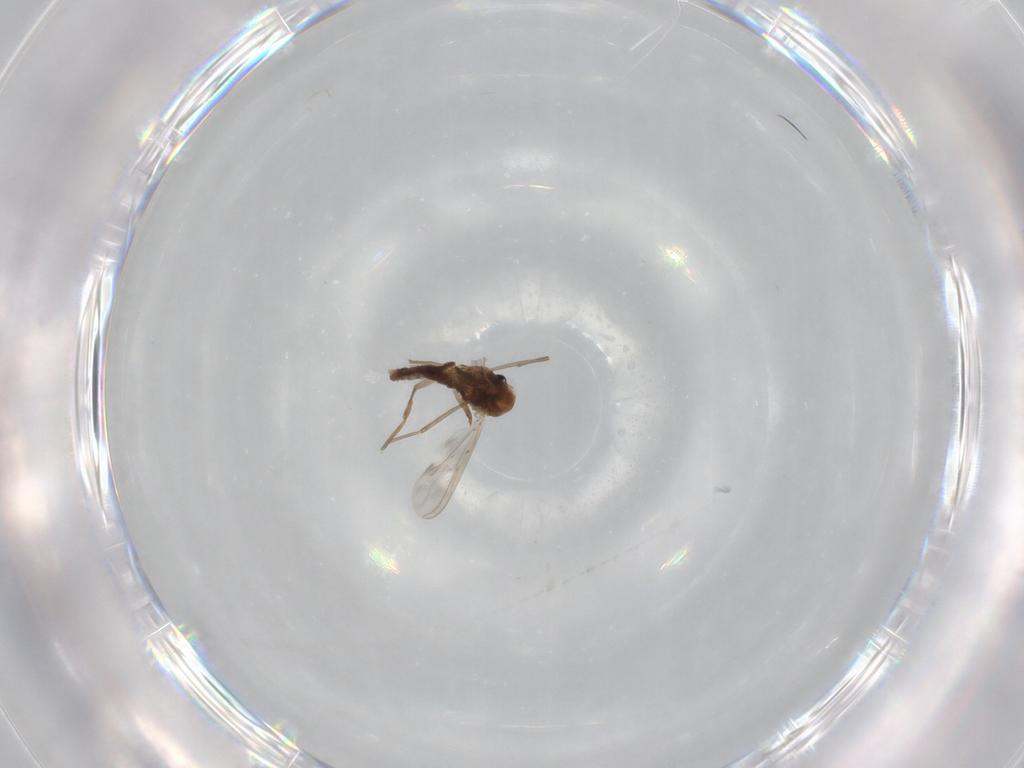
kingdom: Animalia
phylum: Arthropoda
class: Insecta
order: Diptera
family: Chironomidae
